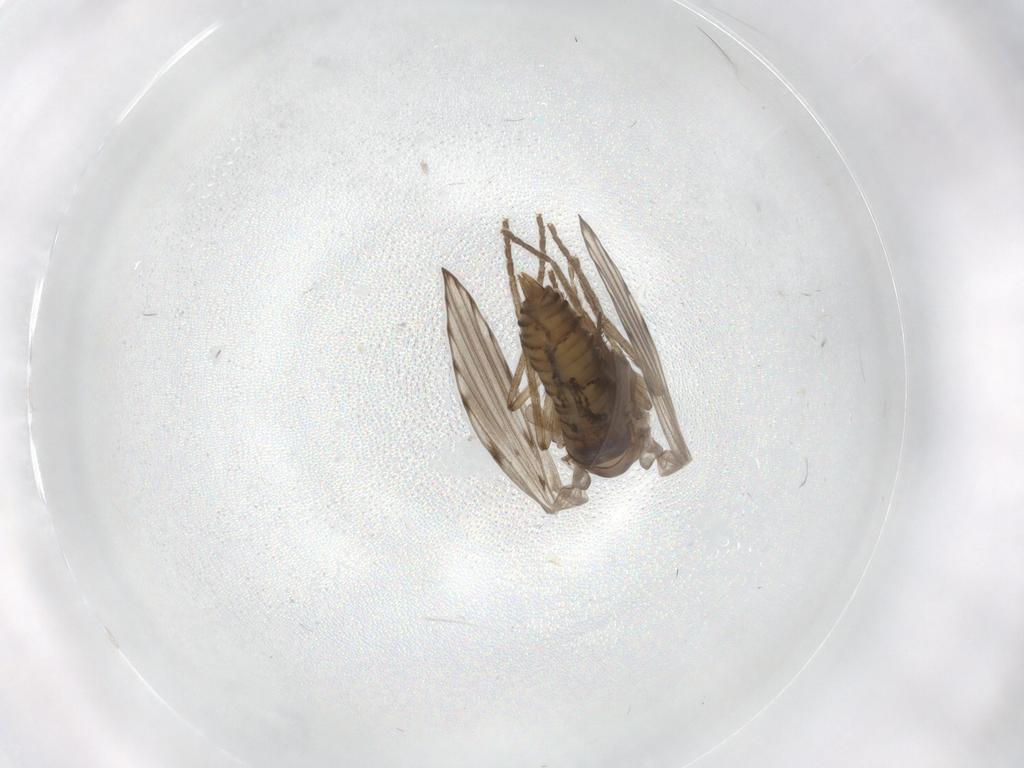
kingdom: Animalia
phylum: Arthropoda
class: Insecta
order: Diptera
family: Psychodidae
